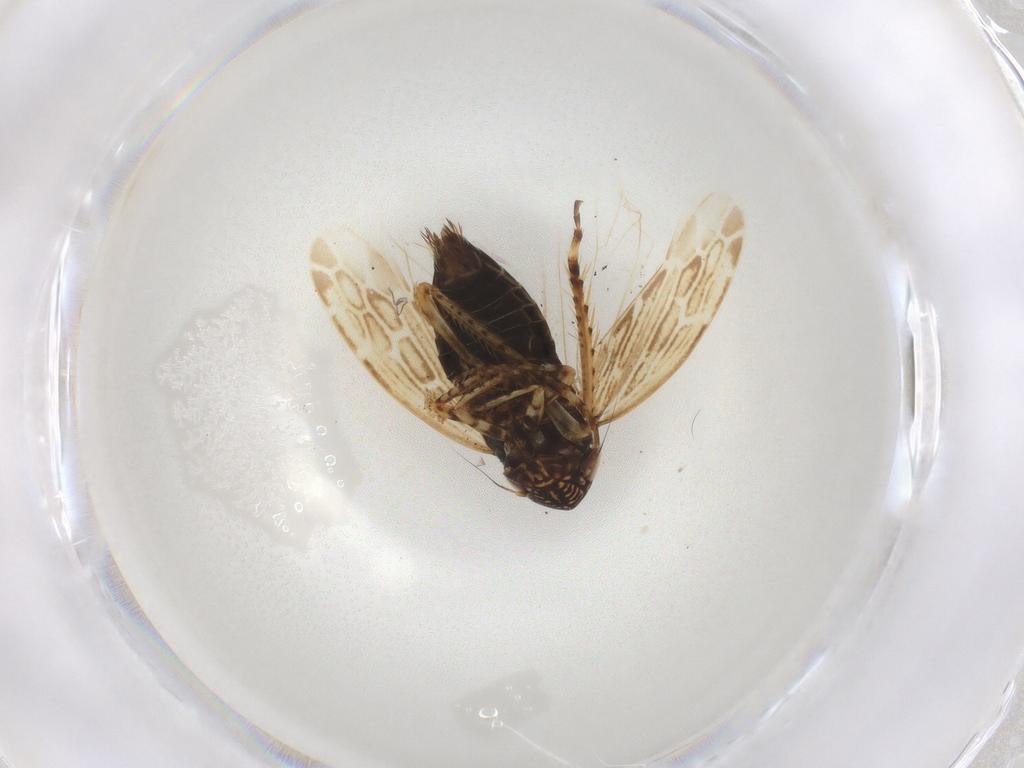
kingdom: Animalia
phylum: Arthropoda
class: Insecta
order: Hemiptera
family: Cicadellidae
